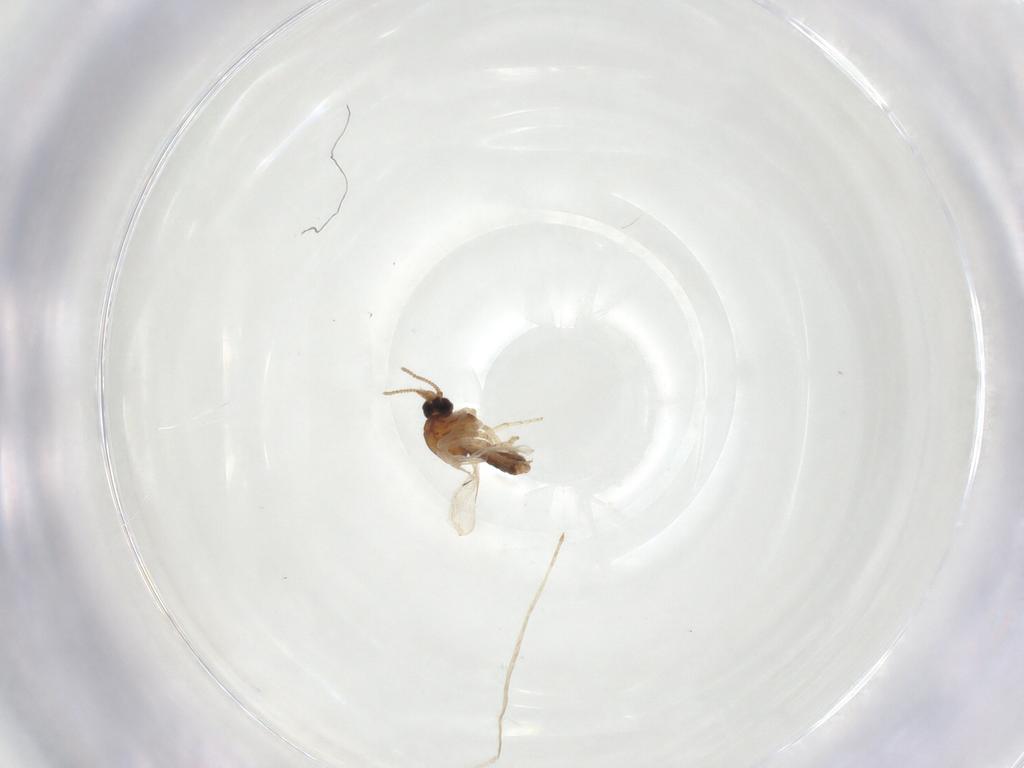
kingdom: Animalia
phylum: Arthropoda
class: Insecta
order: Diptera
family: Ceratopogonidae
